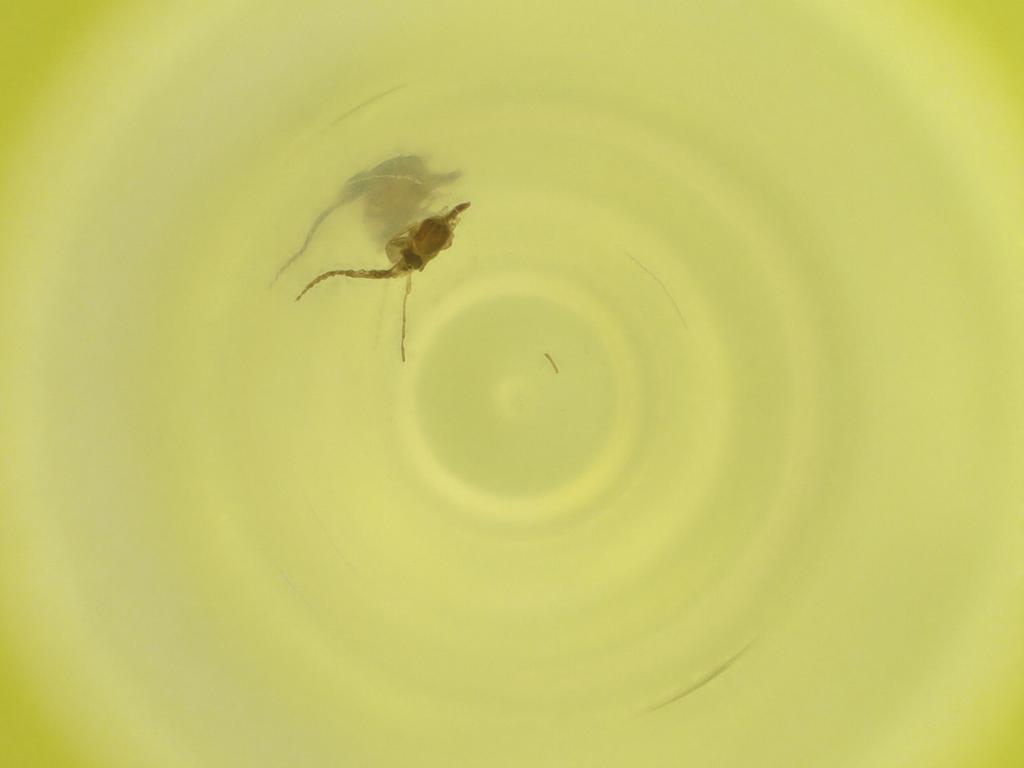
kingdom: Animalia
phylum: Arthropoda
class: Insecta
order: Diptera
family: Cecidomyiidae
